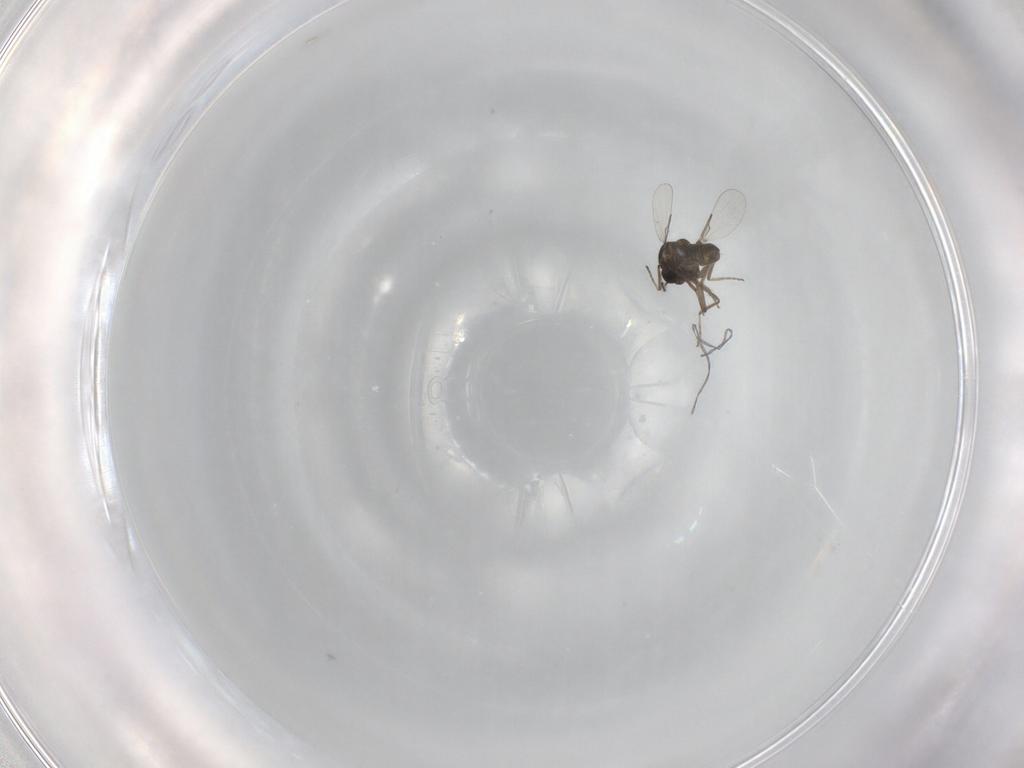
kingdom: Animalia
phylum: Arthropoda
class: Insecta
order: Diptera
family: Ceratopogonidae
